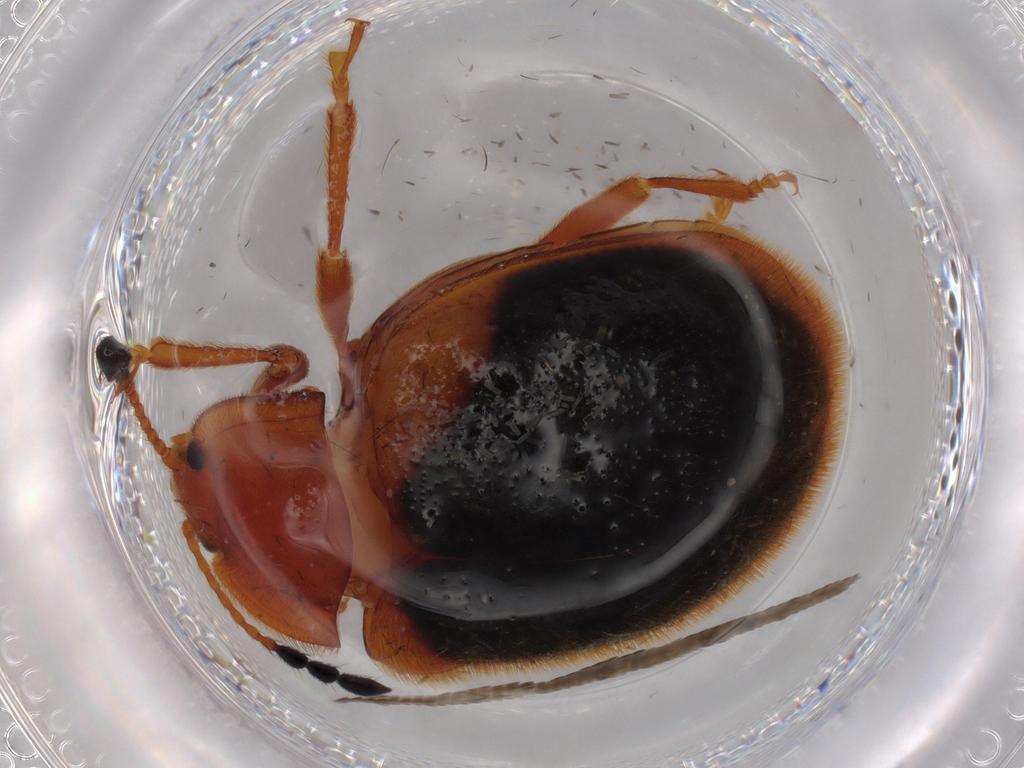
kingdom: Animalia
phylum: Arthropoda
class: Insecta
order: Coleoptera
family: Endomychidae
